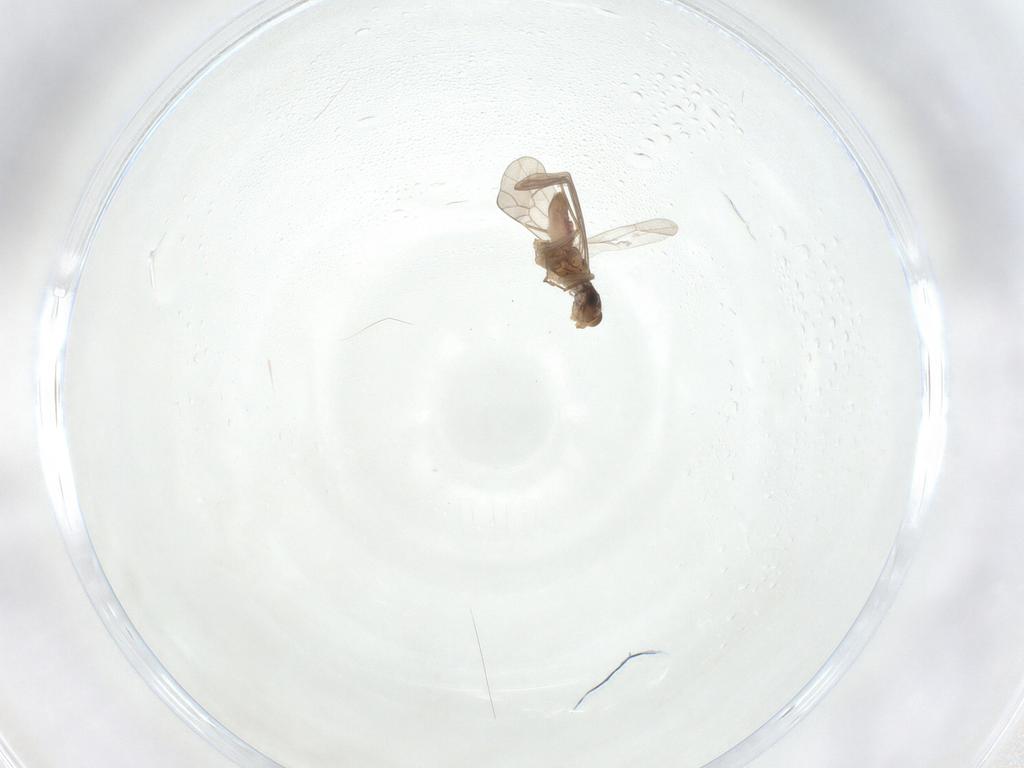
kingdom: Animalia
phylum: Arthropoda
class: Insecta
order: Psocodea
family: Lepidopsocidae
